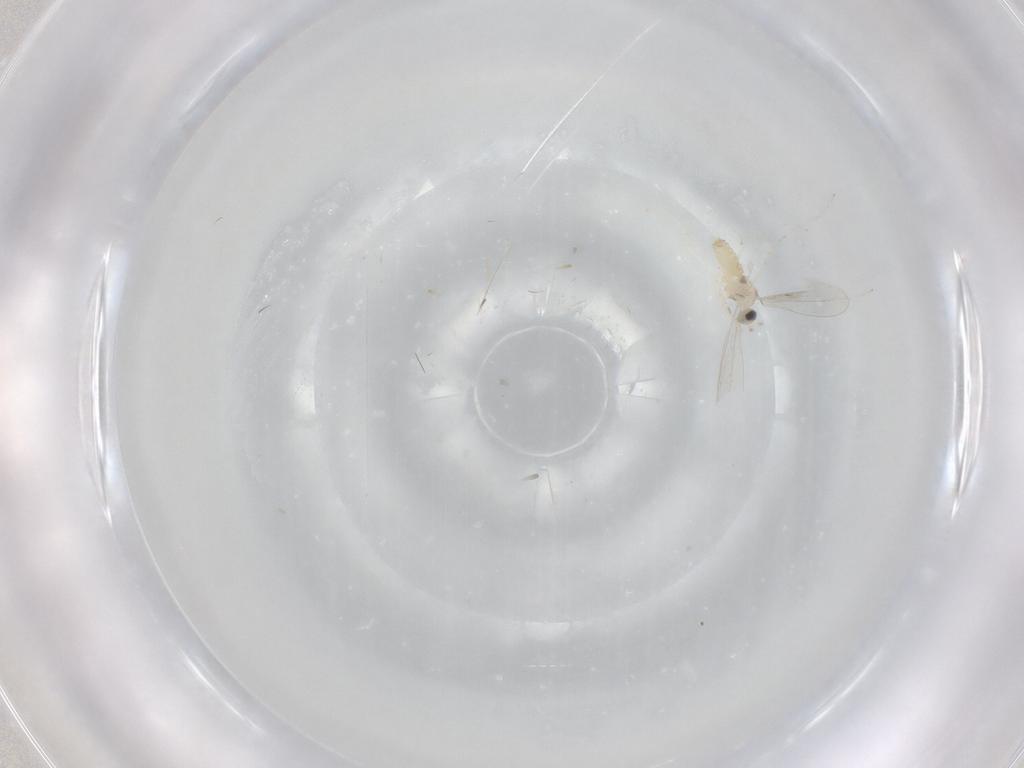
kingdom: Animalia
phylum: Arthropoda
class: Insecta
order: Diptera
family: Cecidomyiidae
